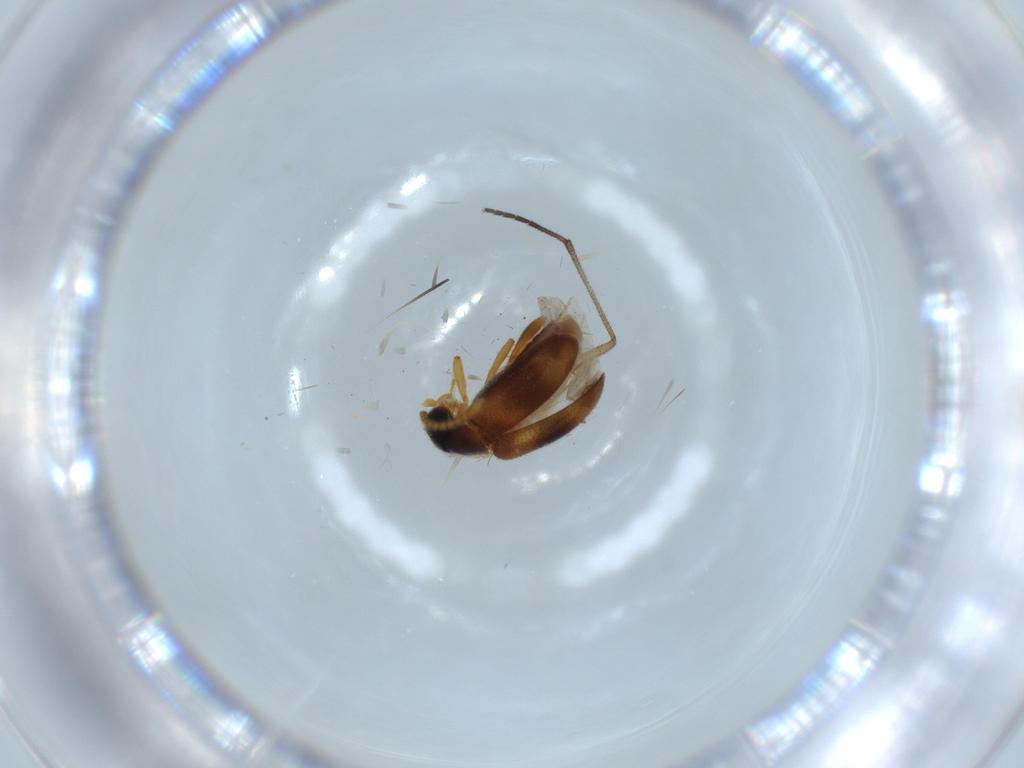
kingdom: Animalia
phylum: Arthropoda
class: Insecta
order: Coleoptera
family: Aderidae
